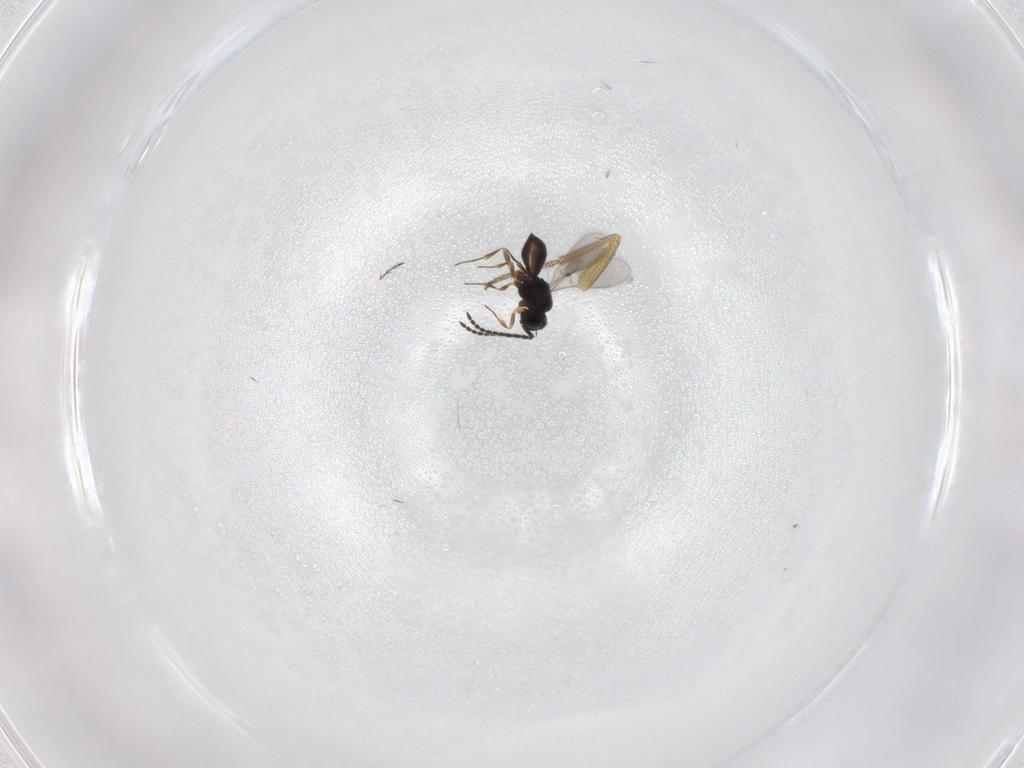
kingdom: Animalia
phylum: Arthropoda
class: Insecta
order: Hymenoptera
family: Scelionidae
